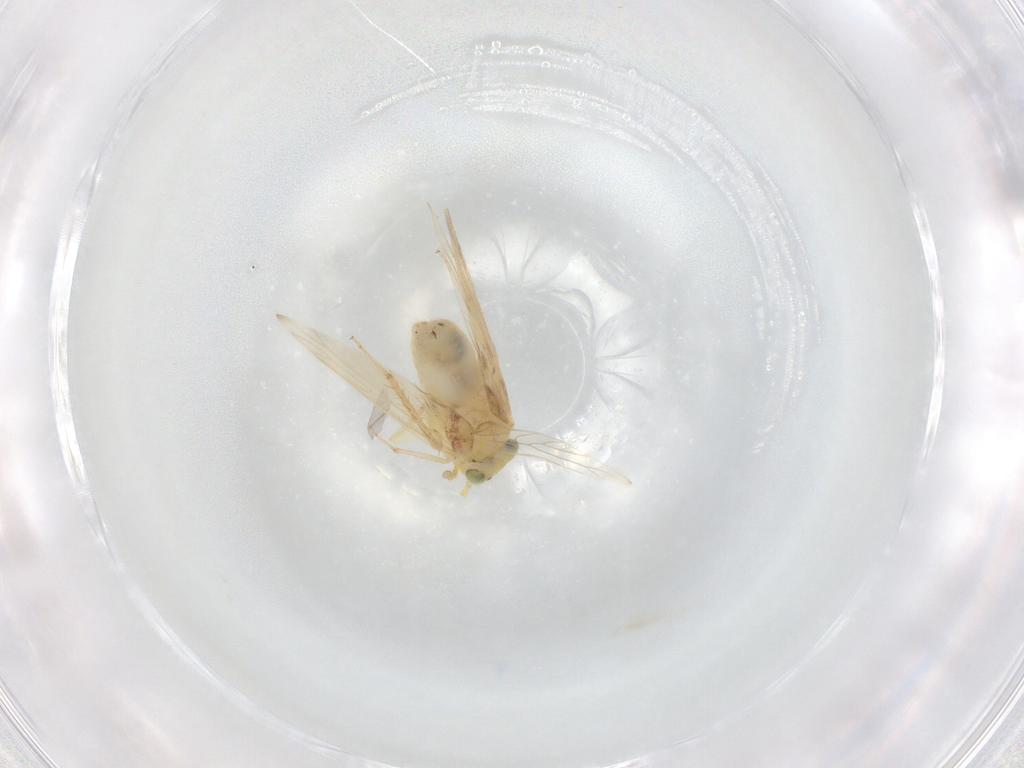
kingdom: Animalia
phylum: Arthropoda
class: Insecta
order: Psocodea
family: Lepidopsocidae
